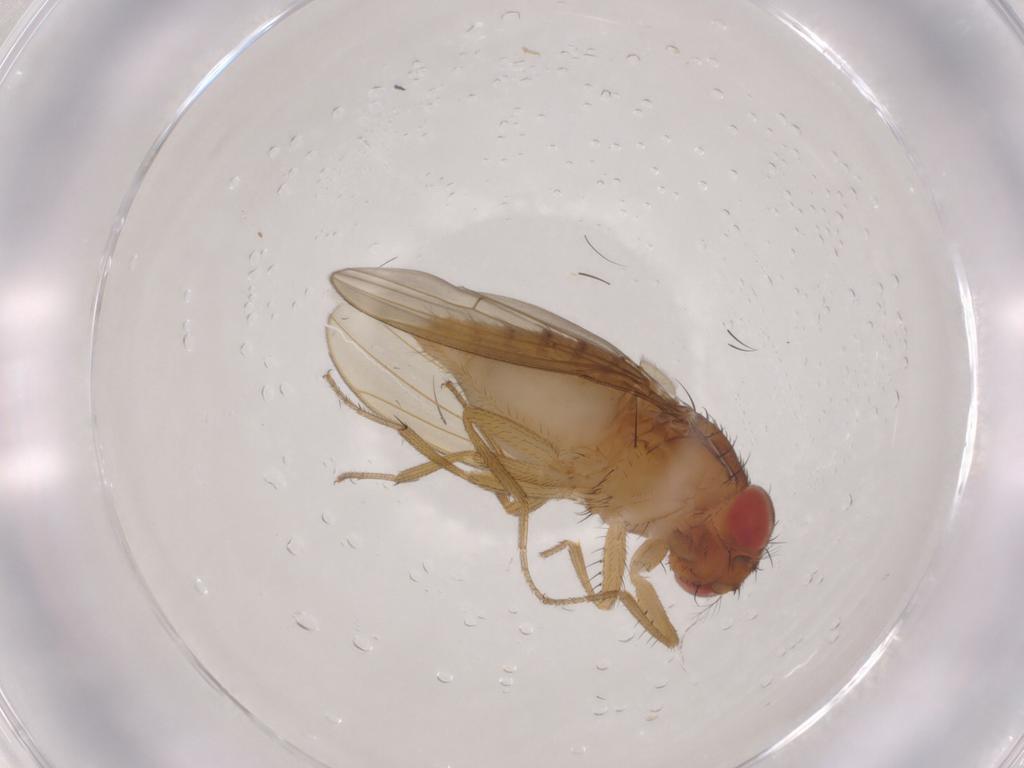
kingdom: Animalia
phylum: Arthropoda
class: Insecta
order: Diptera
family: Drosophilidae
